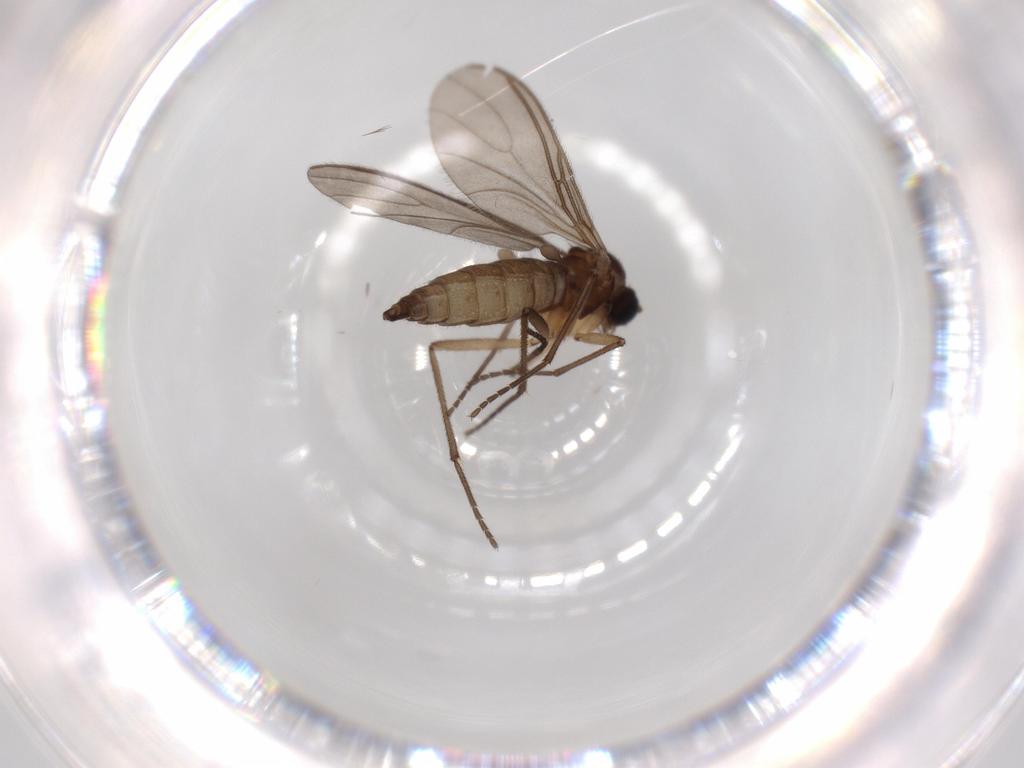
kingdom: Animalia
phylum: Arthropoda
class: Insecta
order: Diptera
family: Sciaridae
